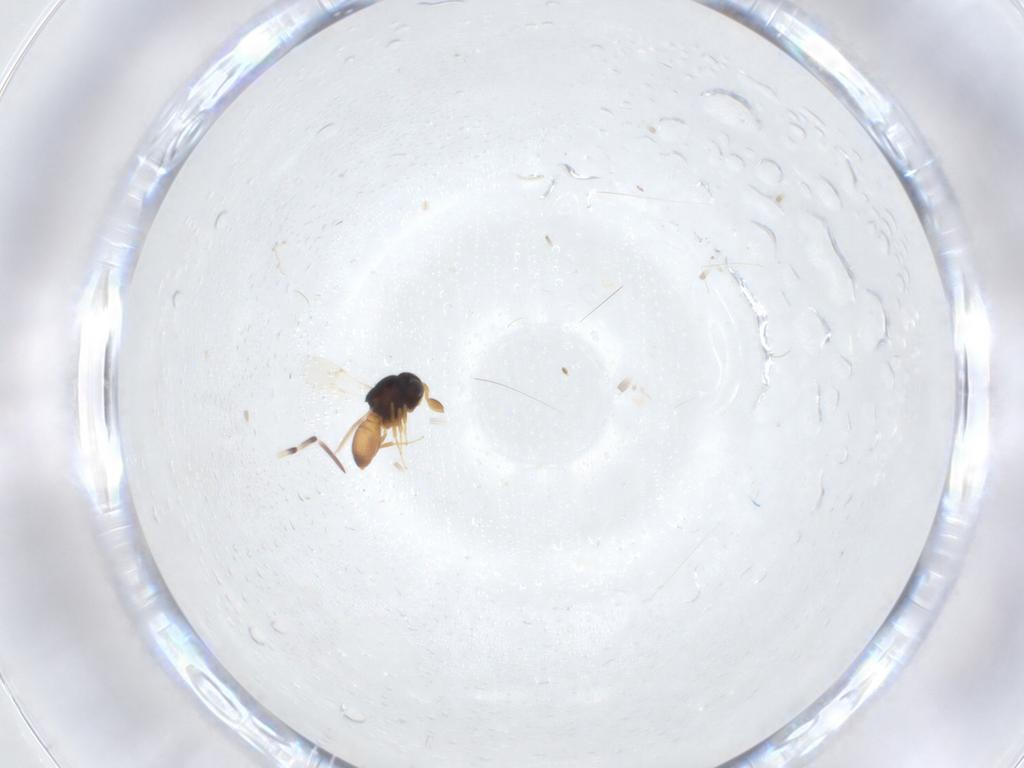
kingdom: Animalia
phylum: Arthropoda
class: Insecta
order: Hymenoptera
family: Scelionidae
